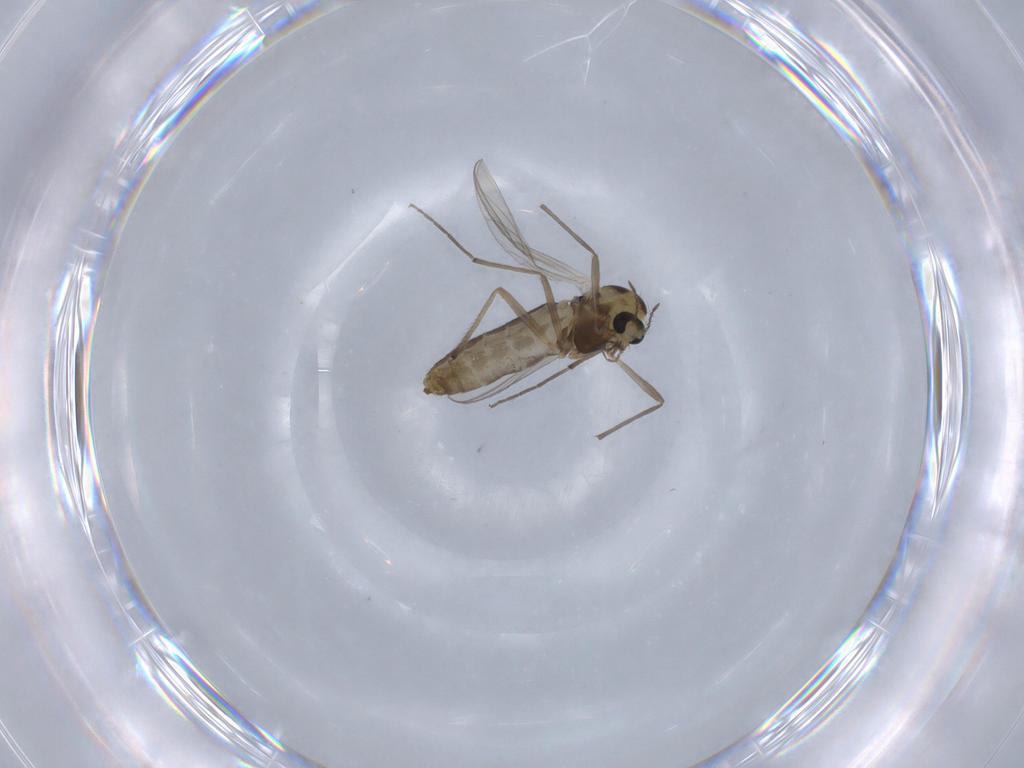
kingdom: Animalia
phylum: Arthropoda
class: Insecta
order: Diptera
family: Chironomidae
